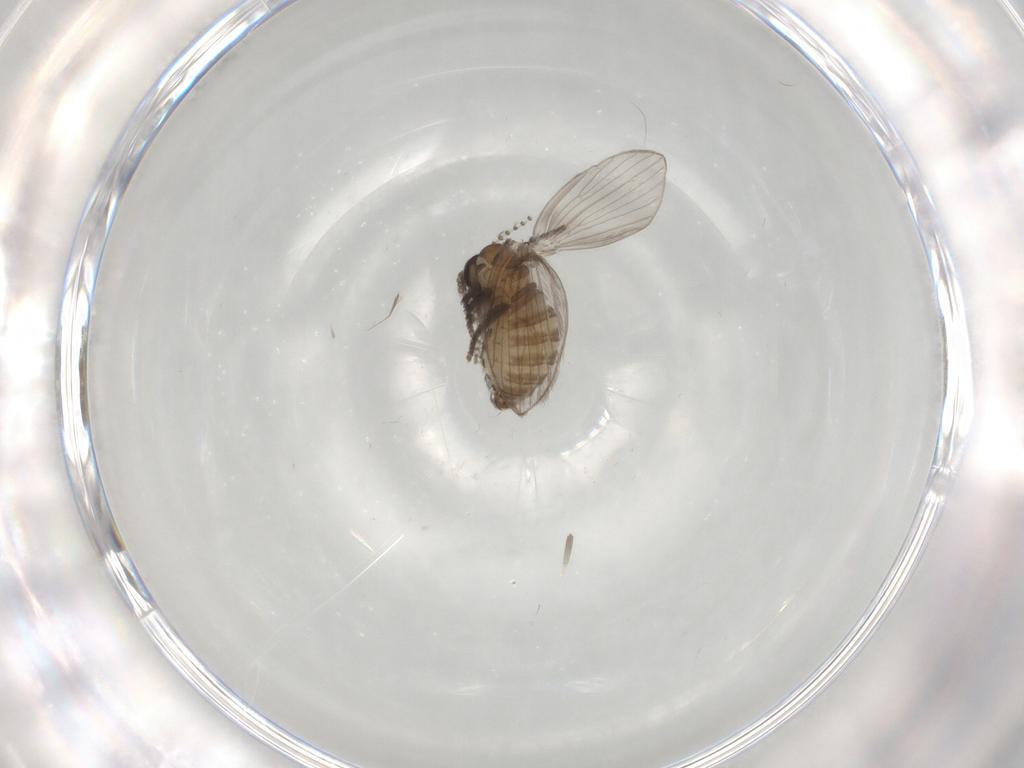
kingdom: Animalia
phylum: Arthropoda
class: Insecta
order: Diptera
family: Psychodidae
